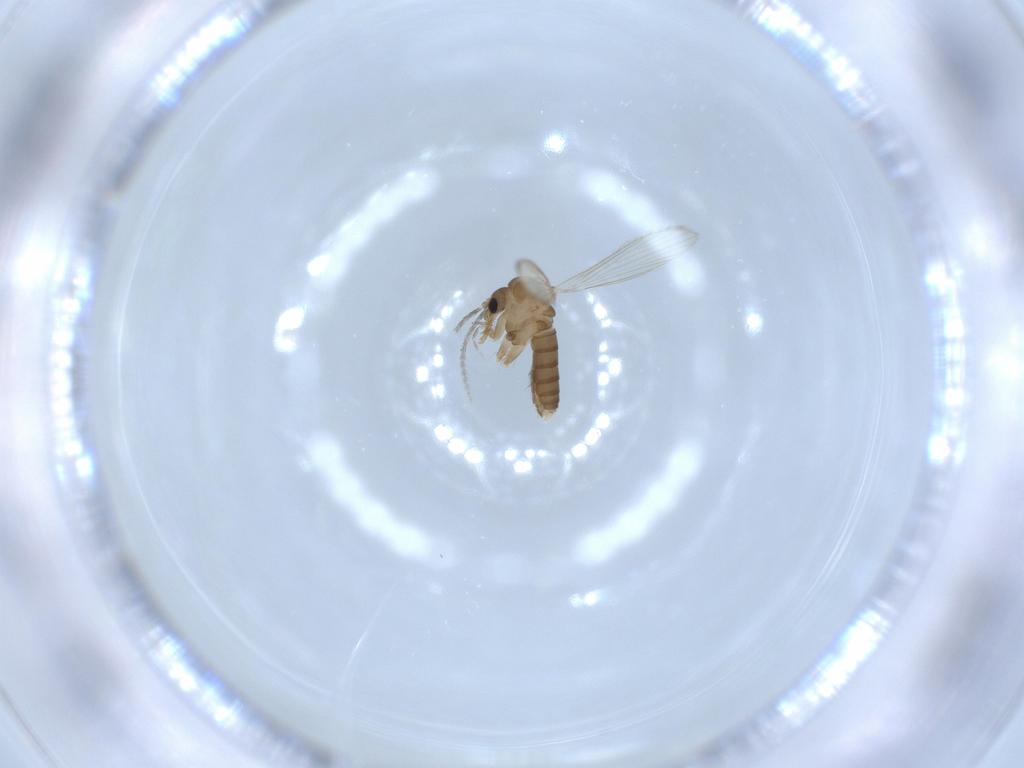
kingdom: Animalia
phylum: Arthropoda
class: Insecta
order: Diptera
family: Psychodidae
